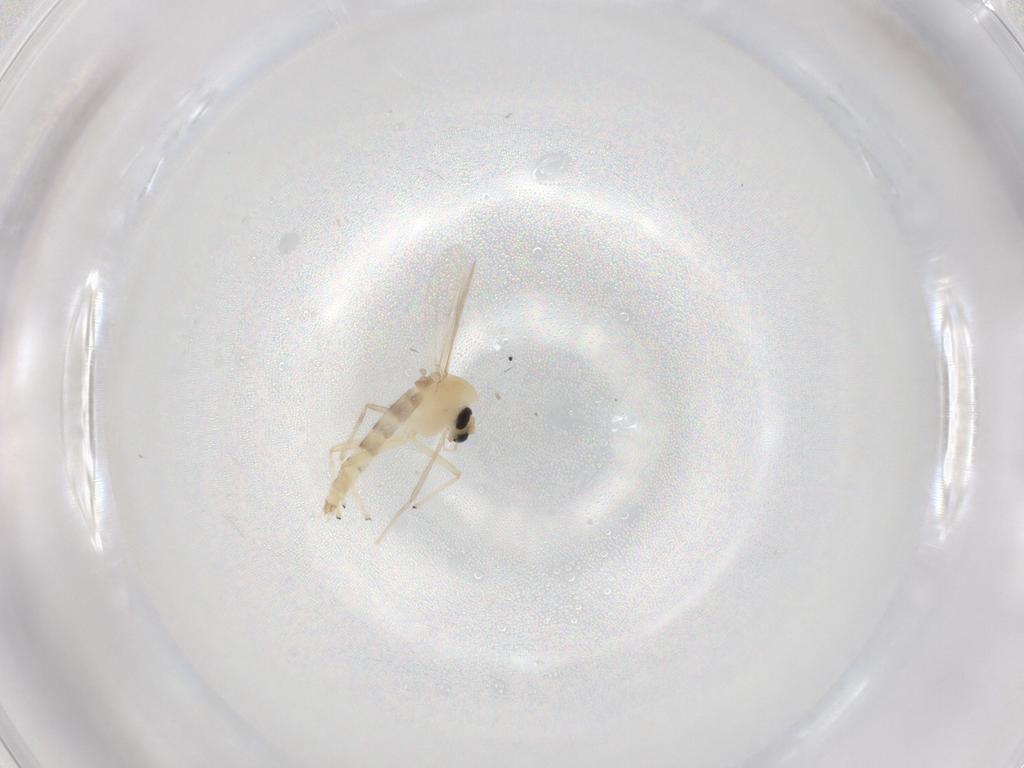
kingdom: Animalia
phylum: Arthropoda
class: Insecta
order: Diptera
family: Chironomidae
